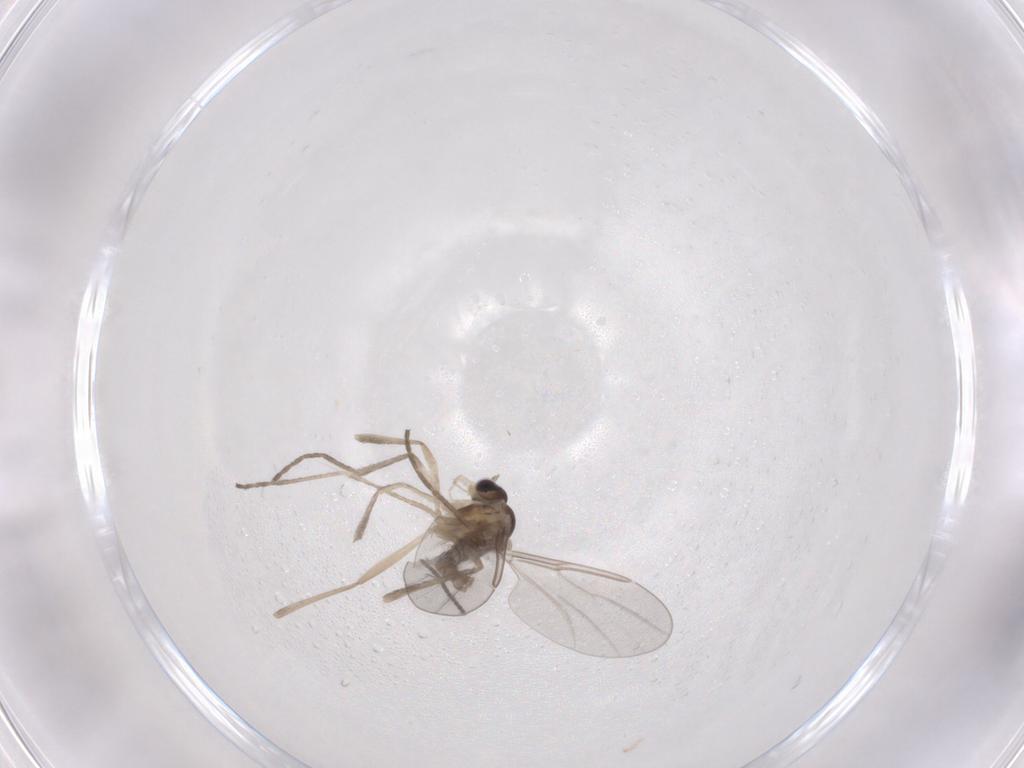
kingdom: Animalia
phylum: Arthropoda
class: Insecta
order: Diptera
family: Cecidomyiidae
